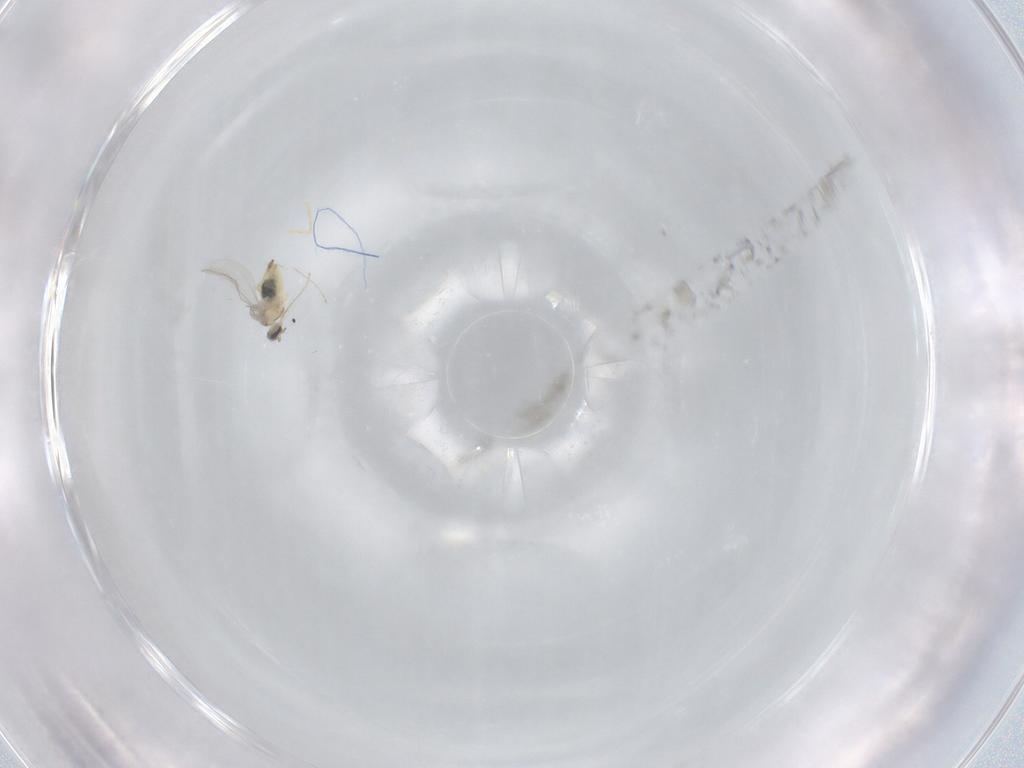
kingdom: Animalia
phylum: Arthropoda
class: Insecta
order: Diptera
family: Cecidomyiidae
